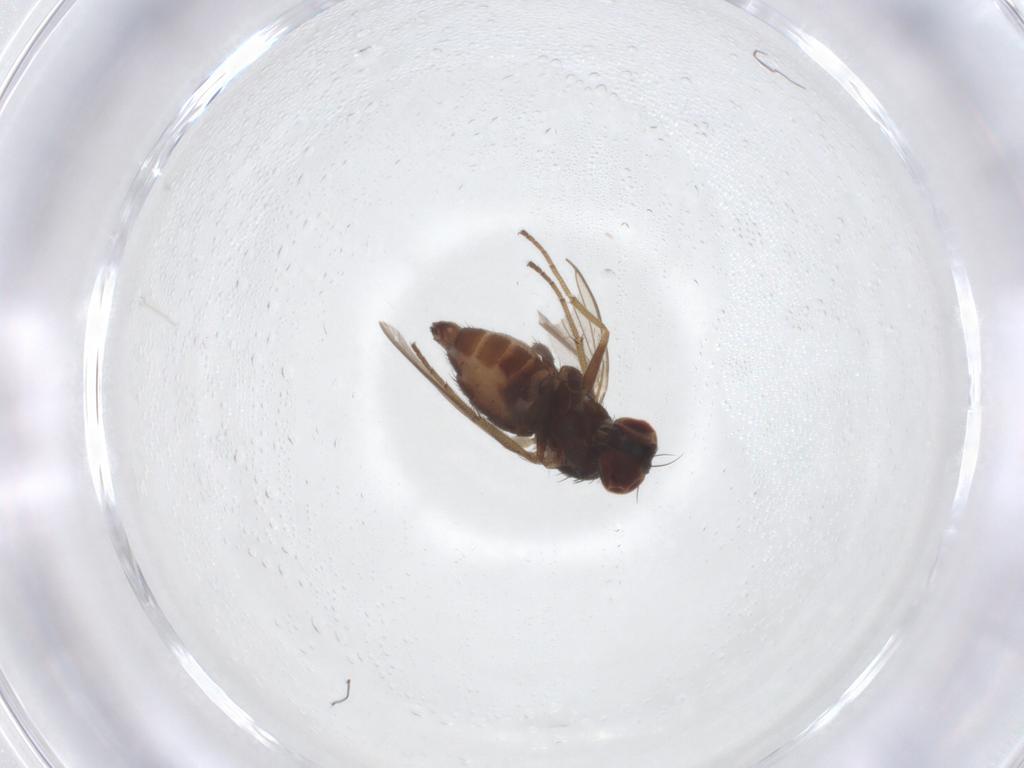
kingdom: Animalia
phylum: Arthropoda
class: Insecta
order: Diptera
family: Dolichopodidae
